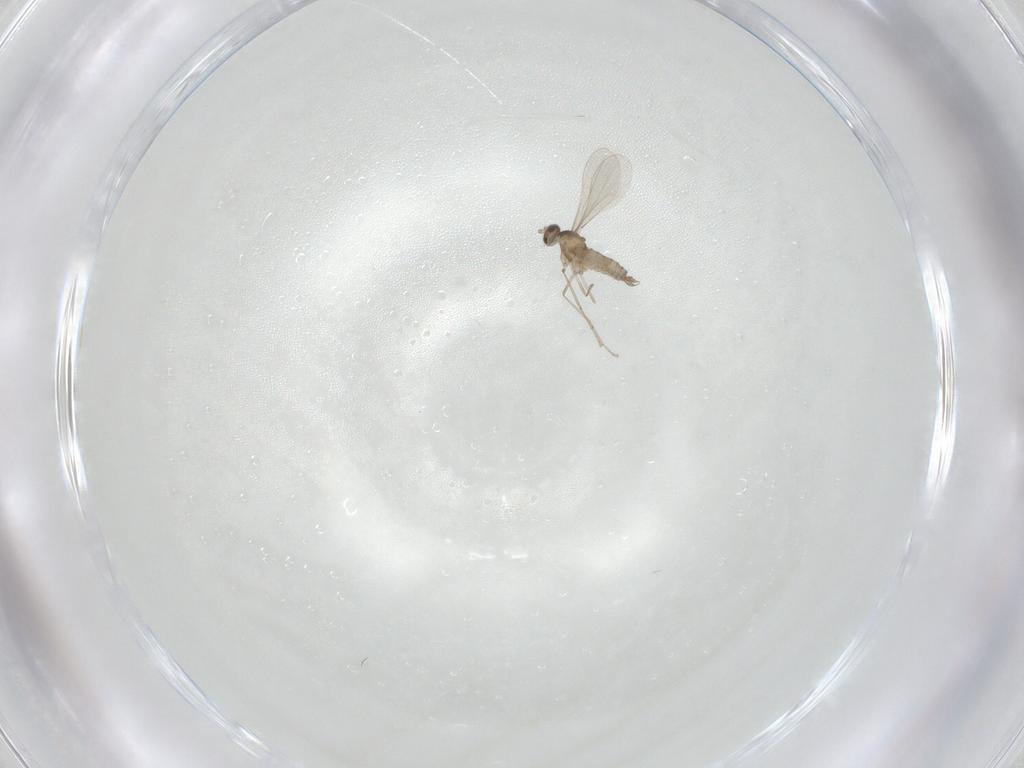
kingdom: Animalia
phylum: Arthropoda
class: Insecta
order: Diptera
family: Cecidomyiidae
